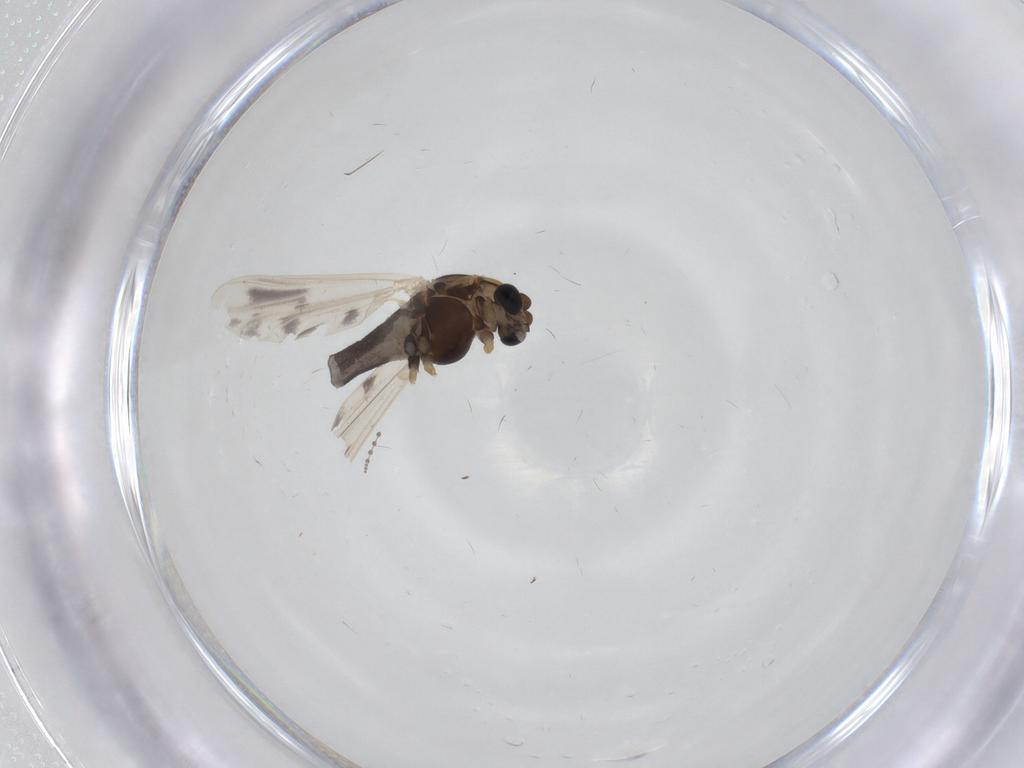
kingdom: Animalia
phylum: Arthropoda
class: Insecta
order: Diptera
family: Chironomidae
